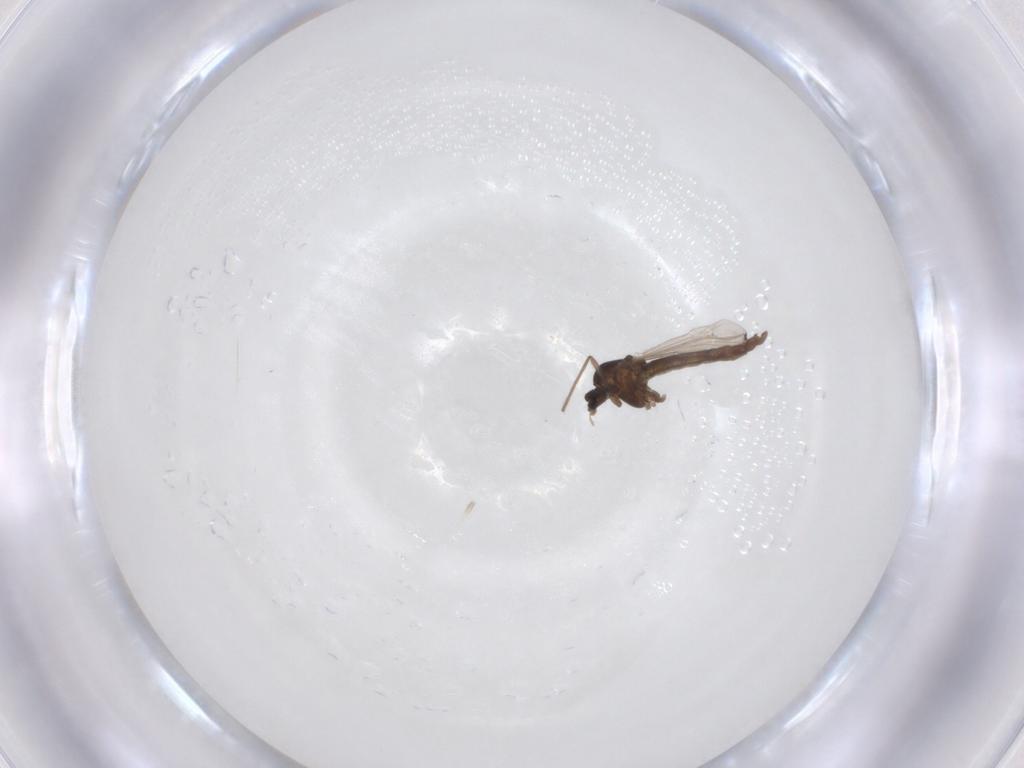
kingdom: Animalia
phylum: Arthropoda
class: Insecta
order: Diptera
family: Chironomidae
